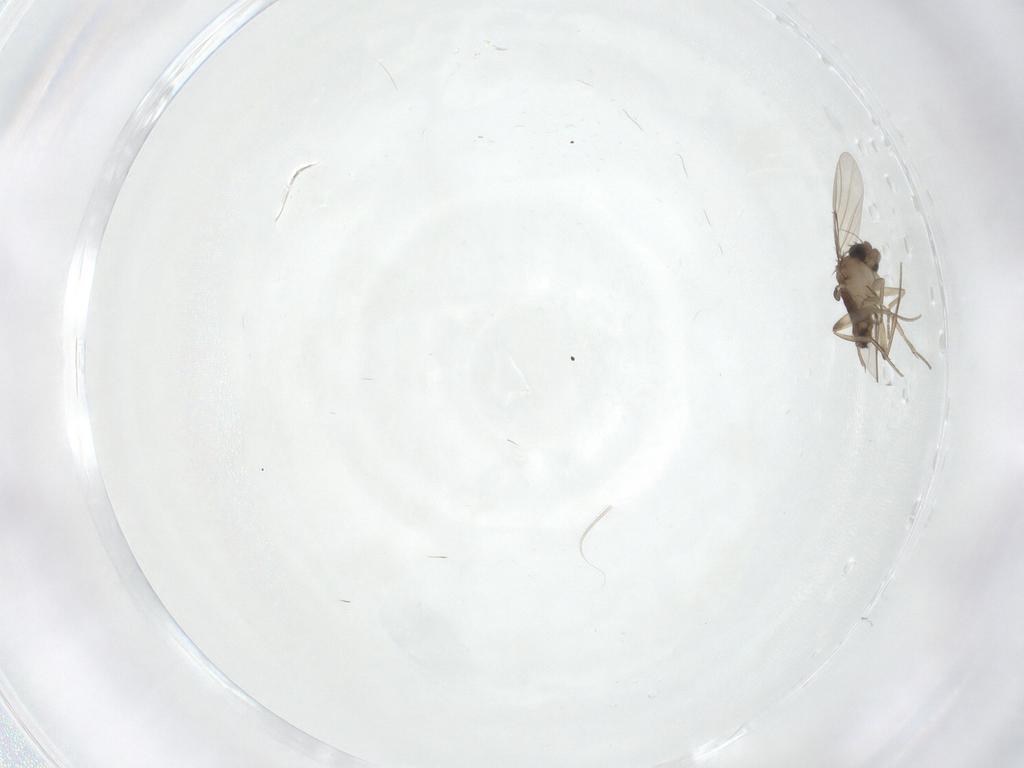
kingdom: Animalia
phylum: Arthropoda
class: Insecta
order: Diptera
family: Phoridae
